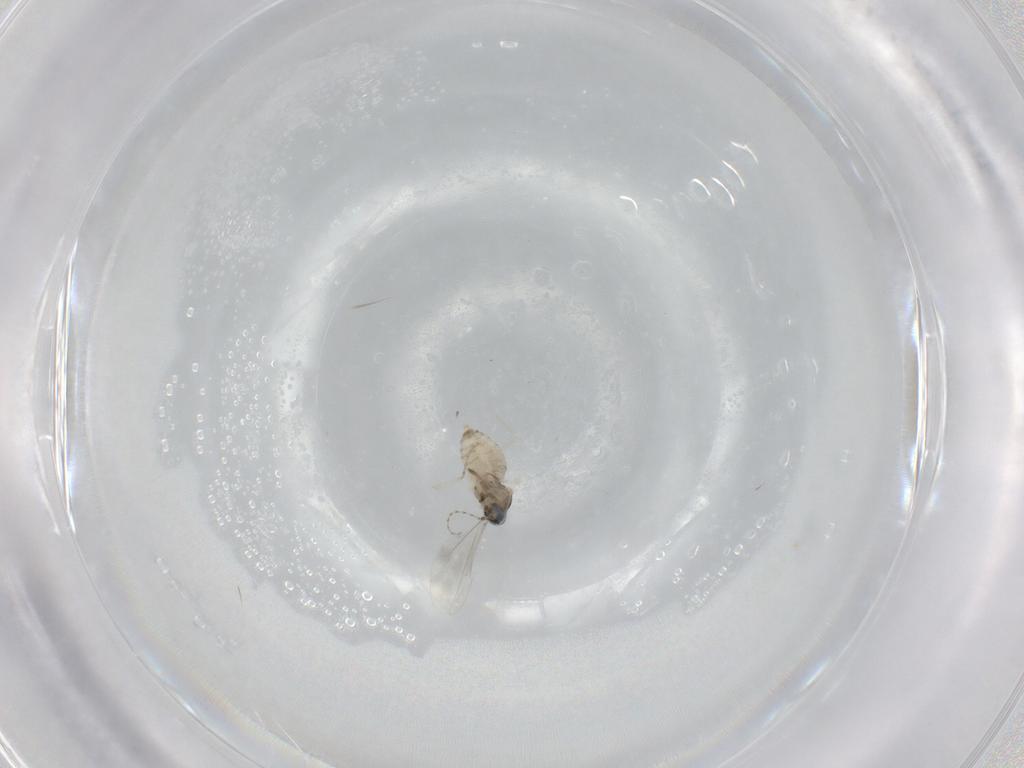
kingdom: Animalia
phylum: Arthropoda
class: Insecta
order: Diptera
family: Cecidomyiidae
